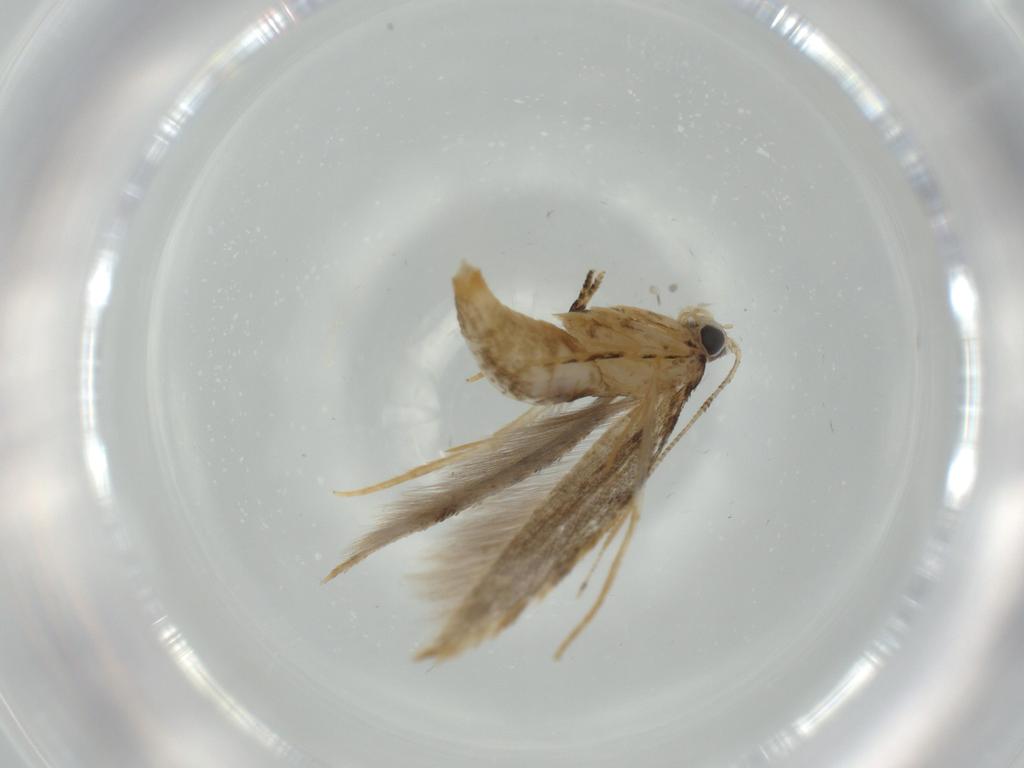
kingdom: Animalia
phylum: Arthropoda
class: Insecta
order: Lepidoptera
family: Tineidae
